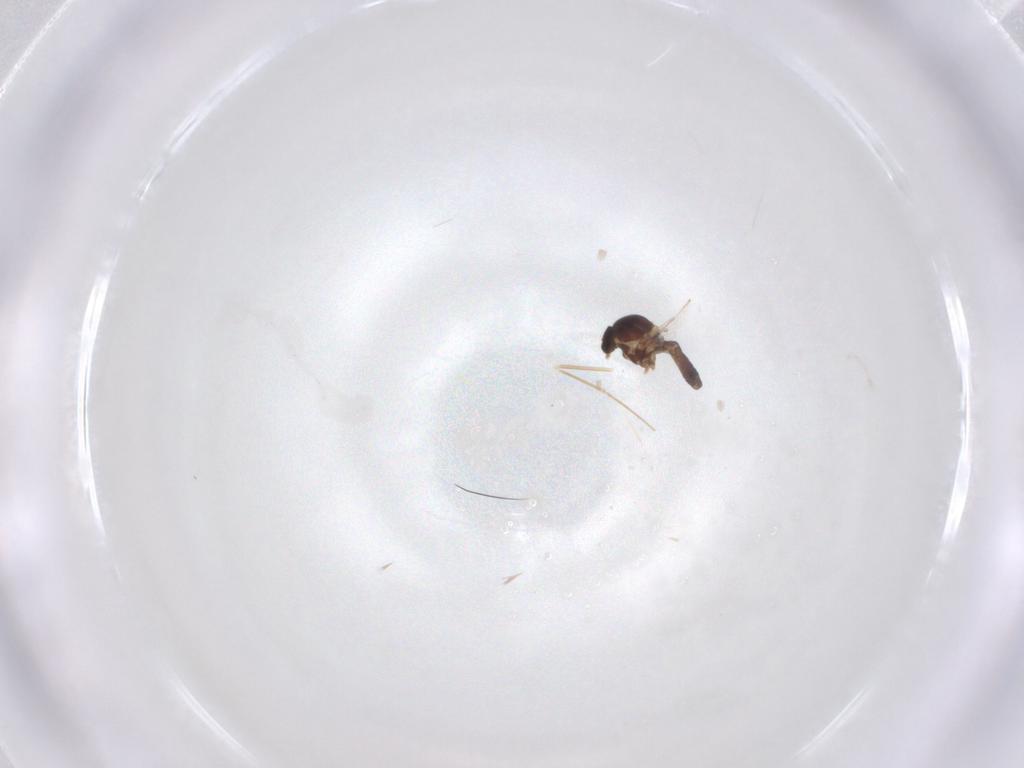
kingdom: Animalia
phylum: Arthropoda
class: Insecta
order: Diptera
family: Ceratopogonidae
